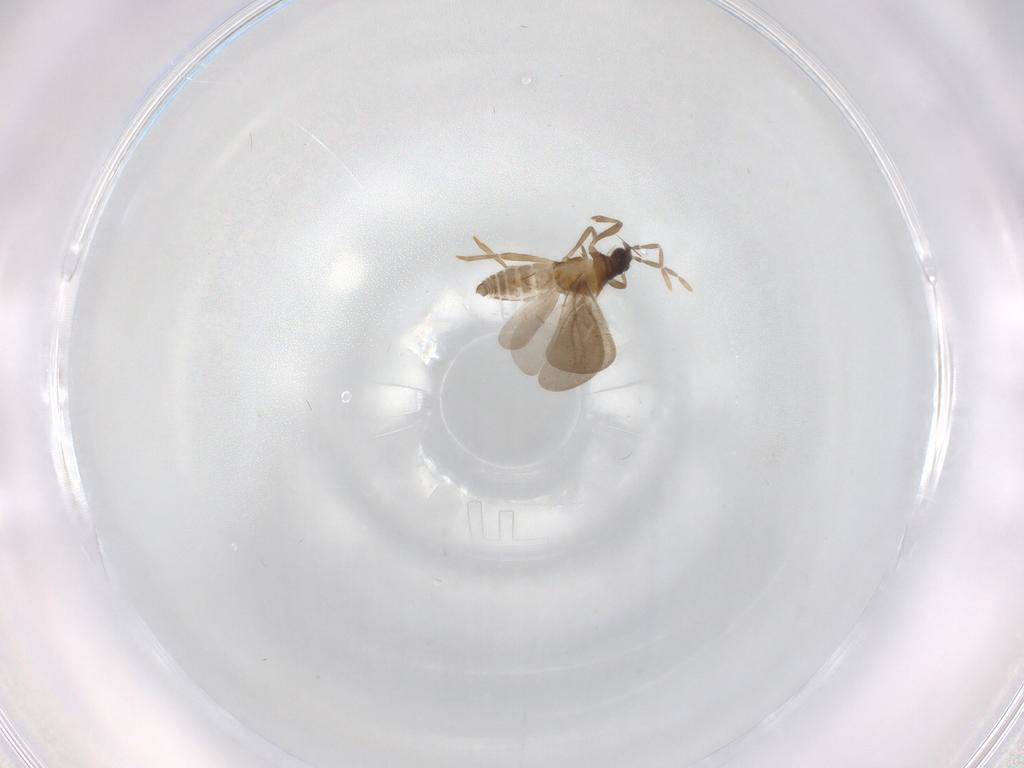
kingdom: Animalia
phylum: Arthropoda
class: Insecta
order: Hemiptera
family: Enicocephalidae
